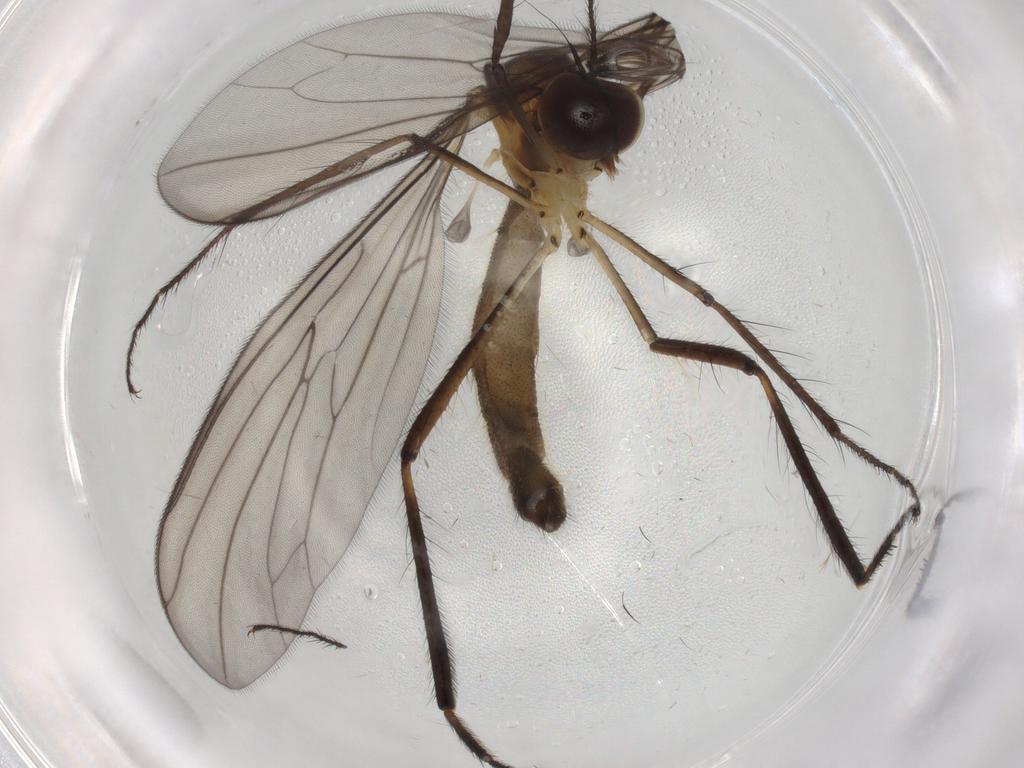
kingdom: Animalia
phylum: Arthropoda
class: Insecta
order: Diptera
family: Hybotidae
